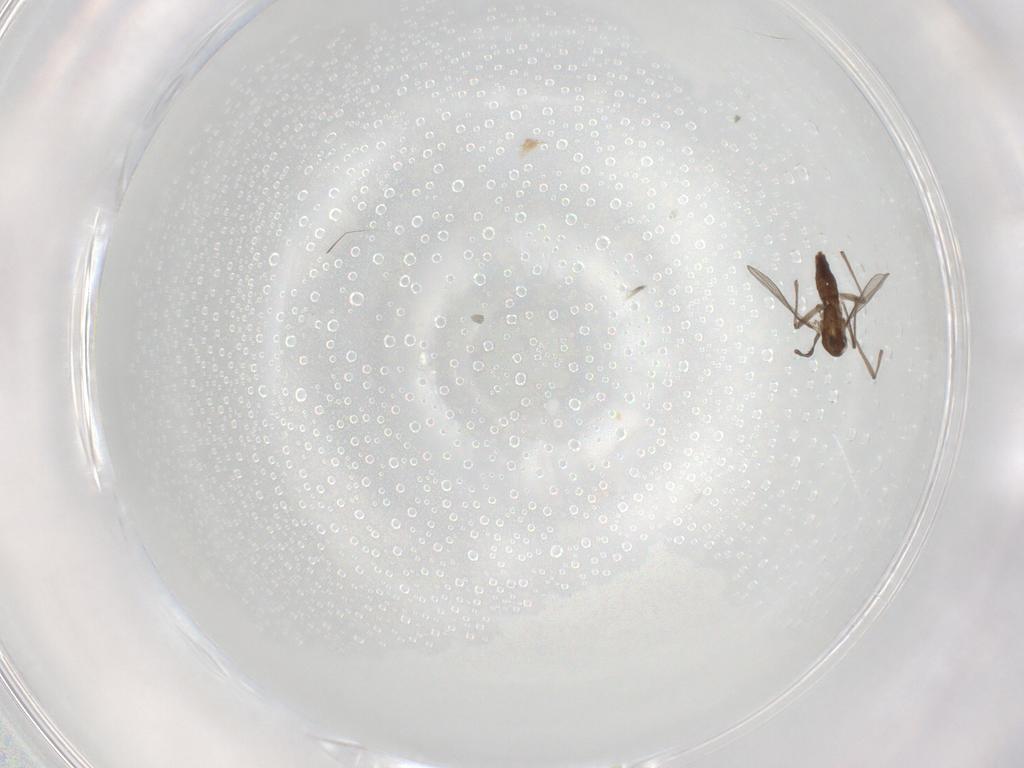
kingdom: Animalia
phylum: Arthropoda
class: Insecta
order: Diptera
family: Chironomidae
